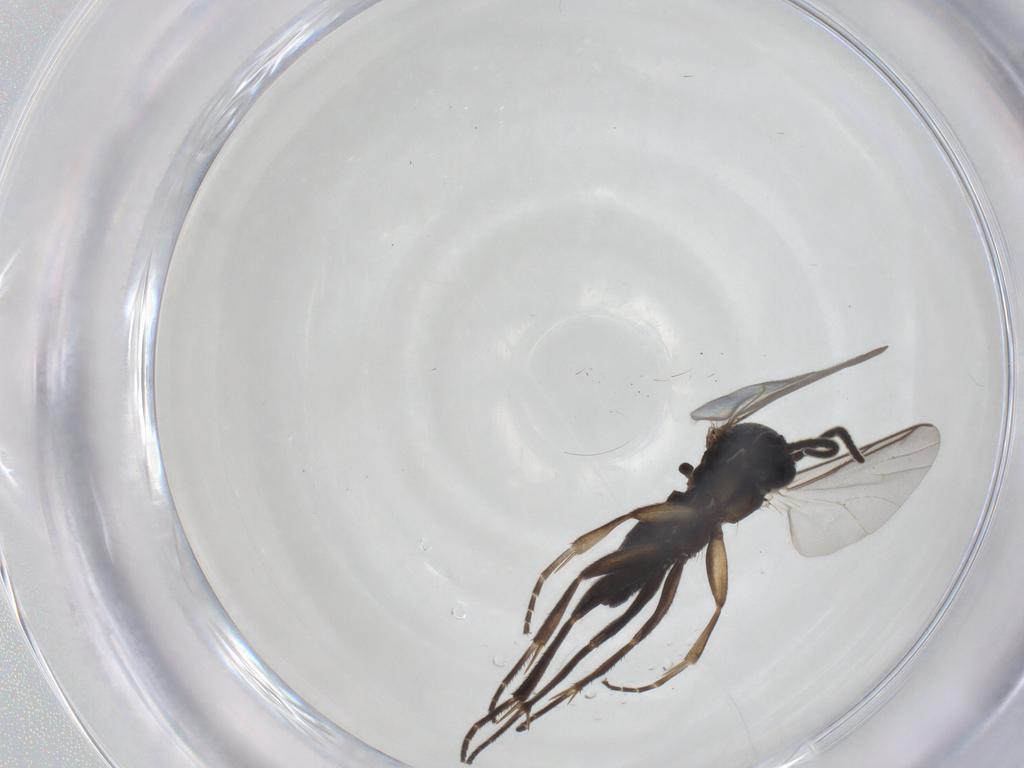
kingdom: Animalia
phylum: Arthropoda
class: Insecta
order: Diptera
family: Mycetophilidae
